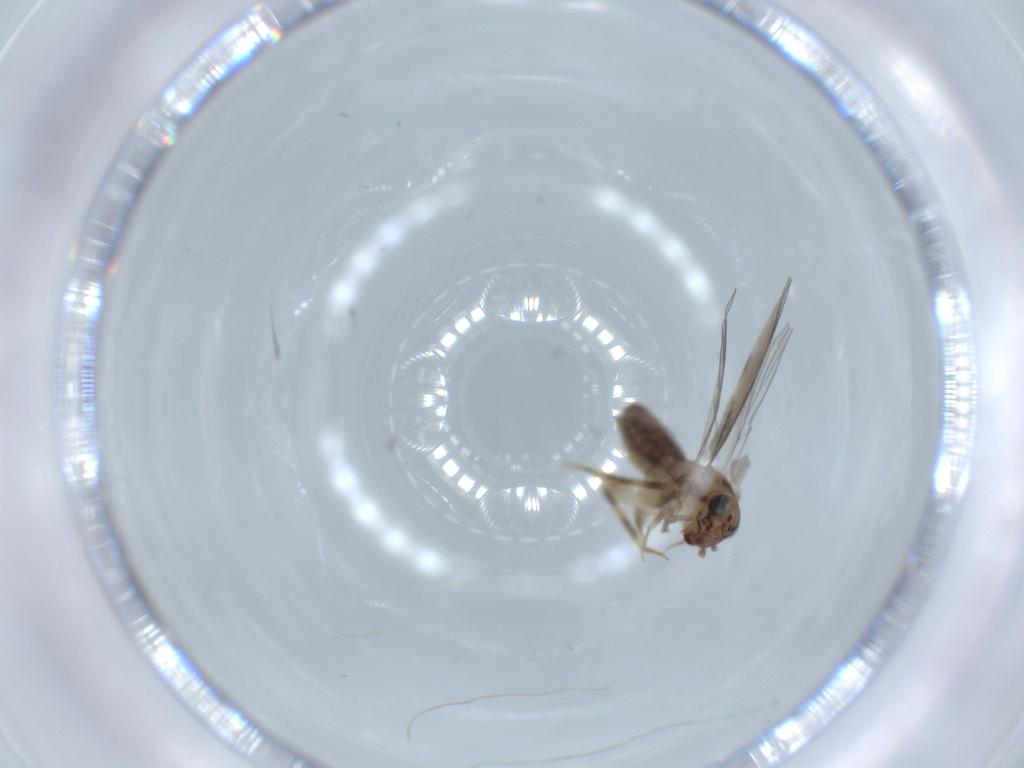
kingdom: Animalia
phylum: Arthropoda
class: Insecta
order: Psocodea
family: Lepidopsocidae
